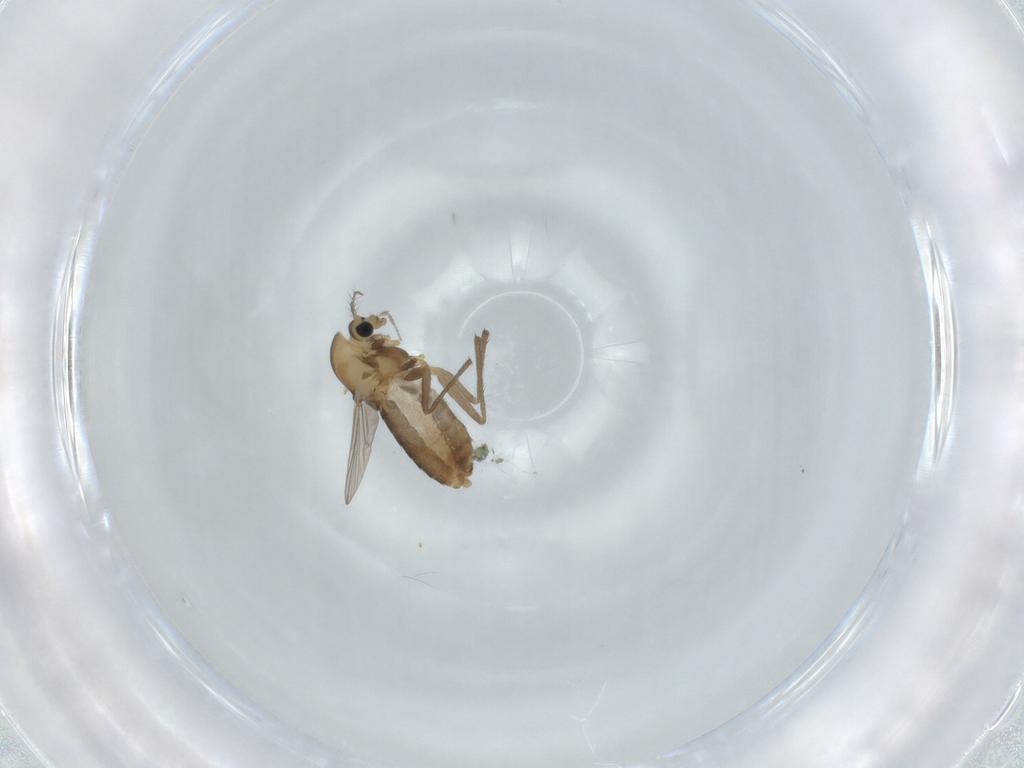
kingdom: Animalia
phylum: Arthropoda
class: Insecta
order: Diptera
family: Chironomidae
